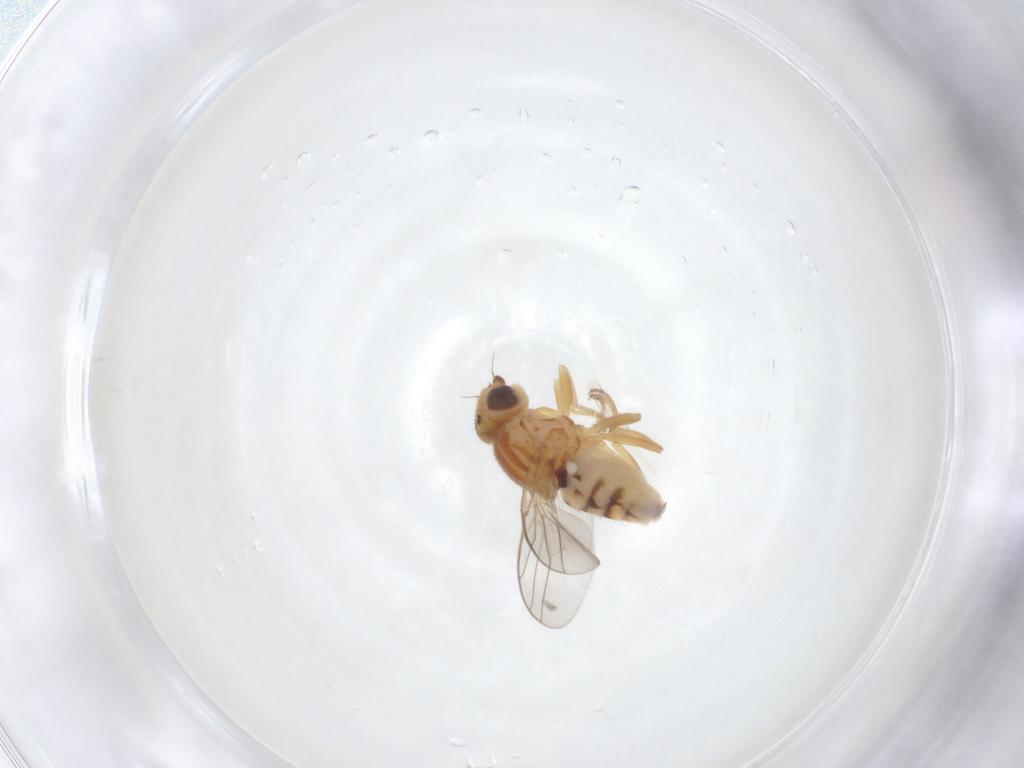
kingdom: Animalia
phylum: Arthropoda
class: Insecta
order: Diptera
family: Chloropidae
